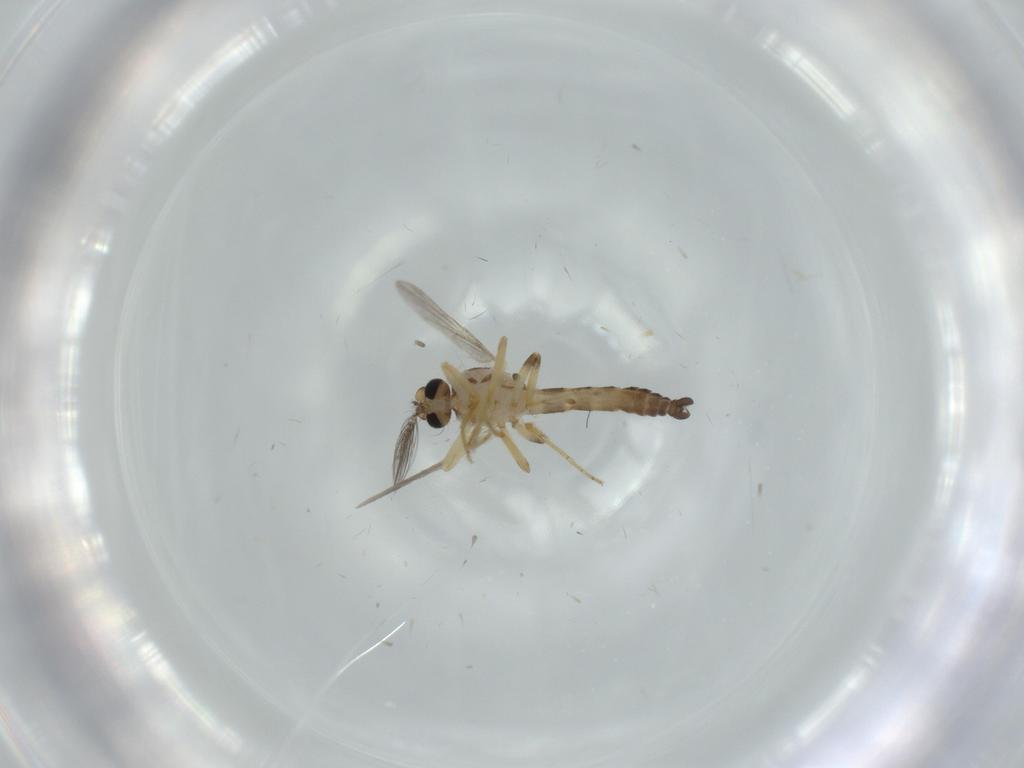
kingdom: Animalia
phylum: Arthropoda
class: Insecta
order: Diptera
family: Ceratopogonidae
